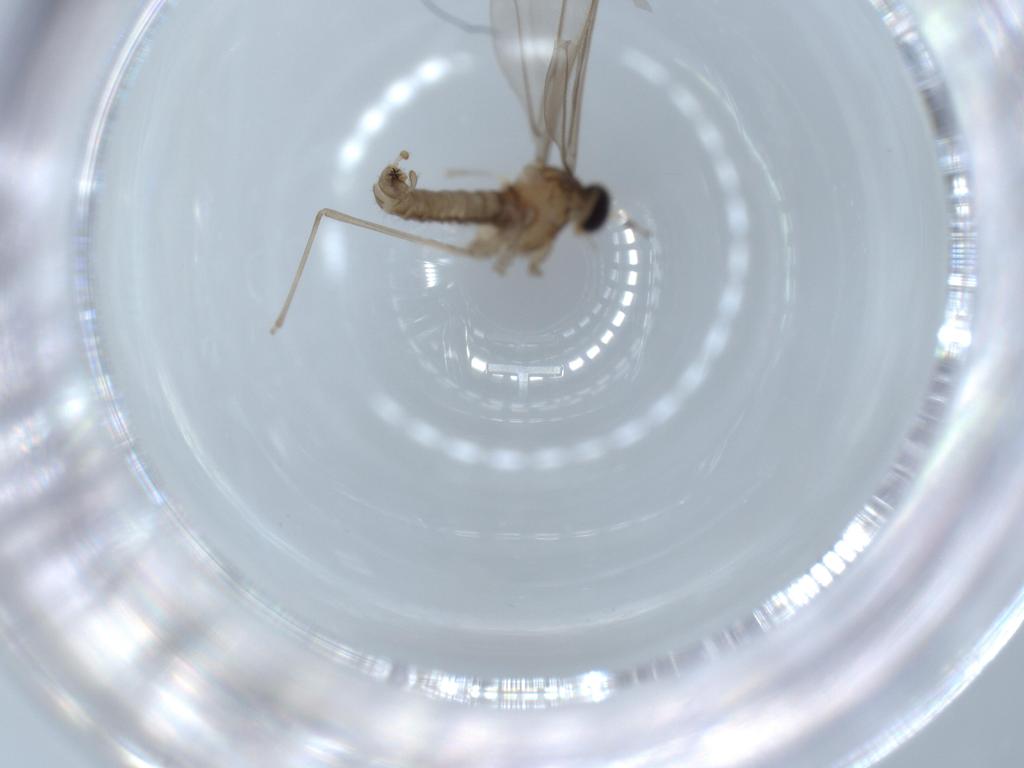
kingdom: Animalia
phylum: Arthropoda
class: Insecta
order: Diptera
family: Cecidomyiidae
